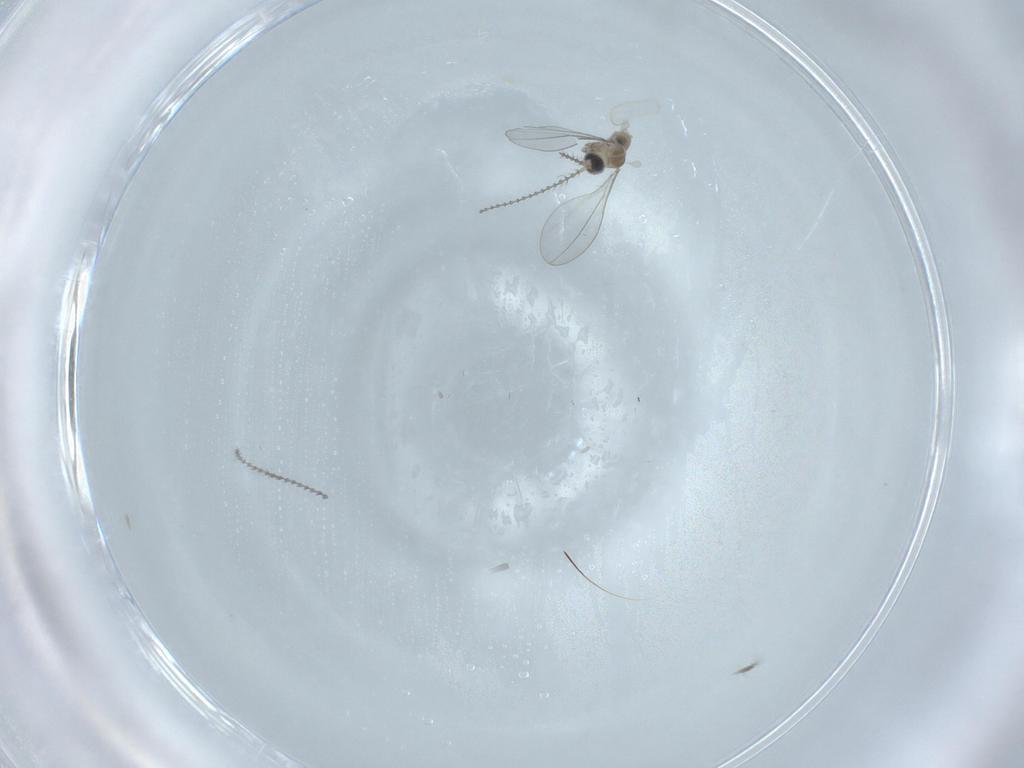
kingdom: Animalia
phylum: Arthropoda
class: Insecta
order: Diptera
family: Cecidomyiidae
